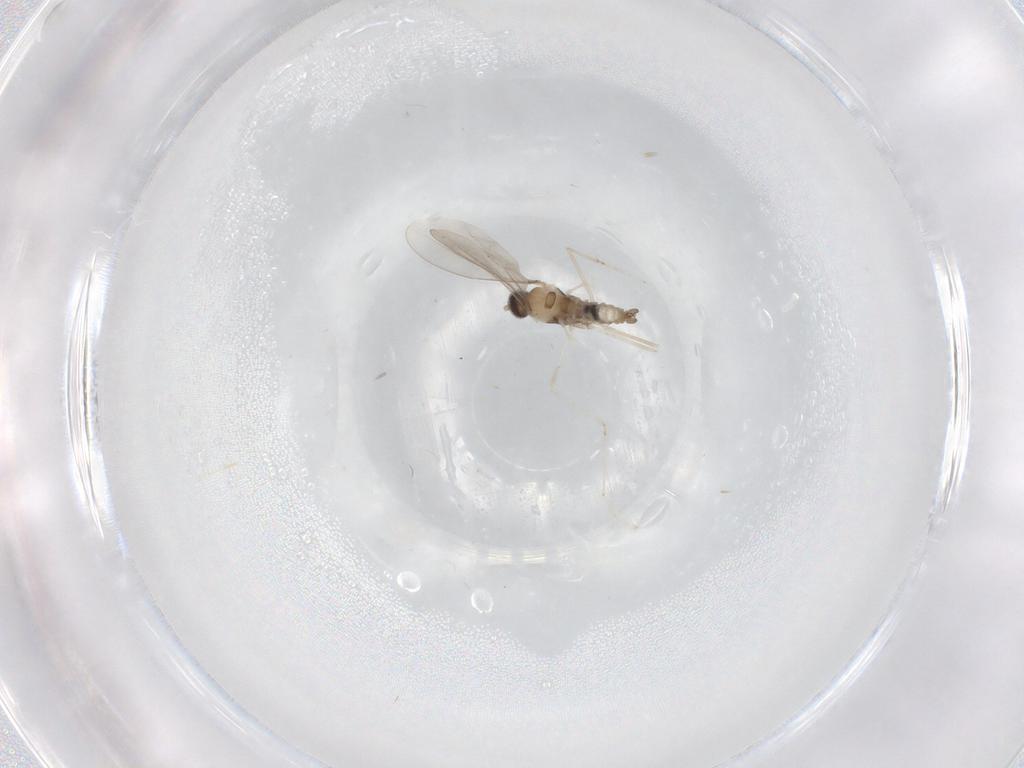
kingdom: Animalia
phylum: Arthropoda
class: Insecta
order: Diptera
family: Cecidomyiidae
